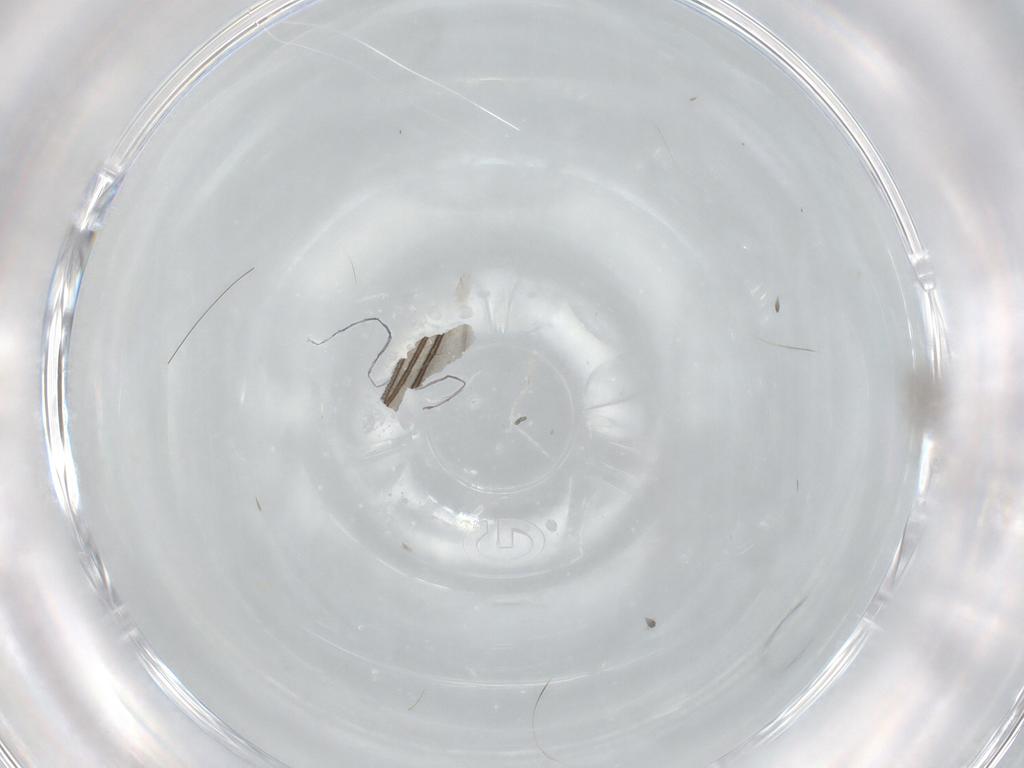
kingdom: Animalia
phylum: Arthropoda
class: Insecta
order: Diptera
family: Sciaridae
